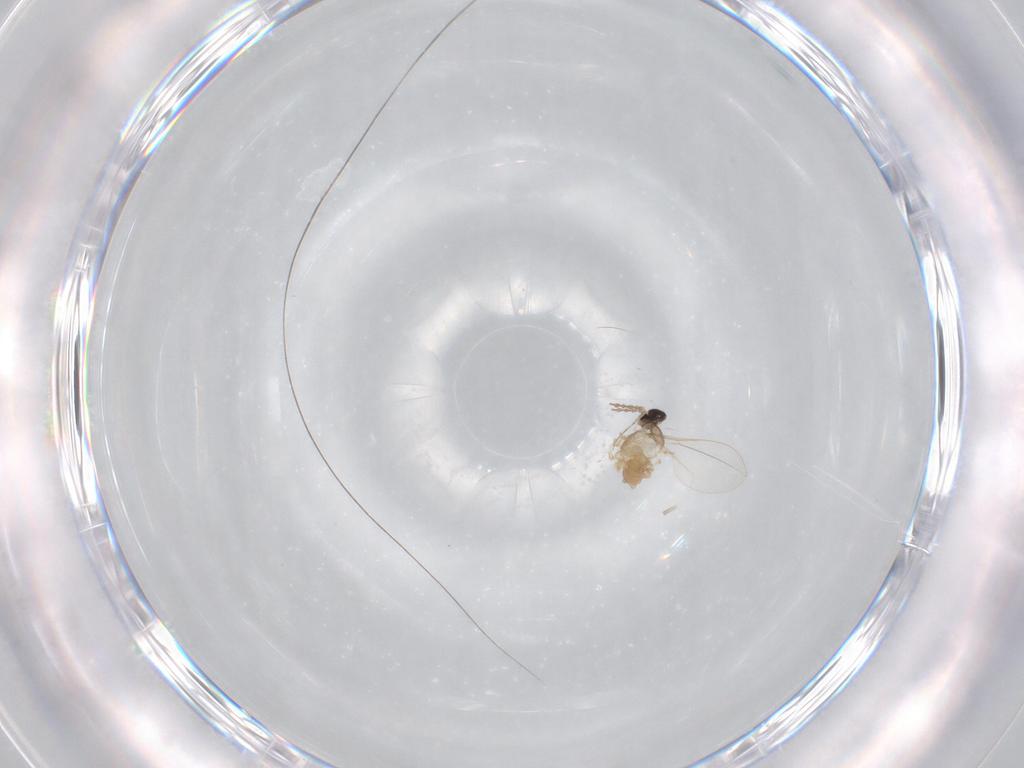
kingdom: Animalia
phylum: Arthropoda
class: Insecta
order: Diptera
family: Cecidomyiidae
